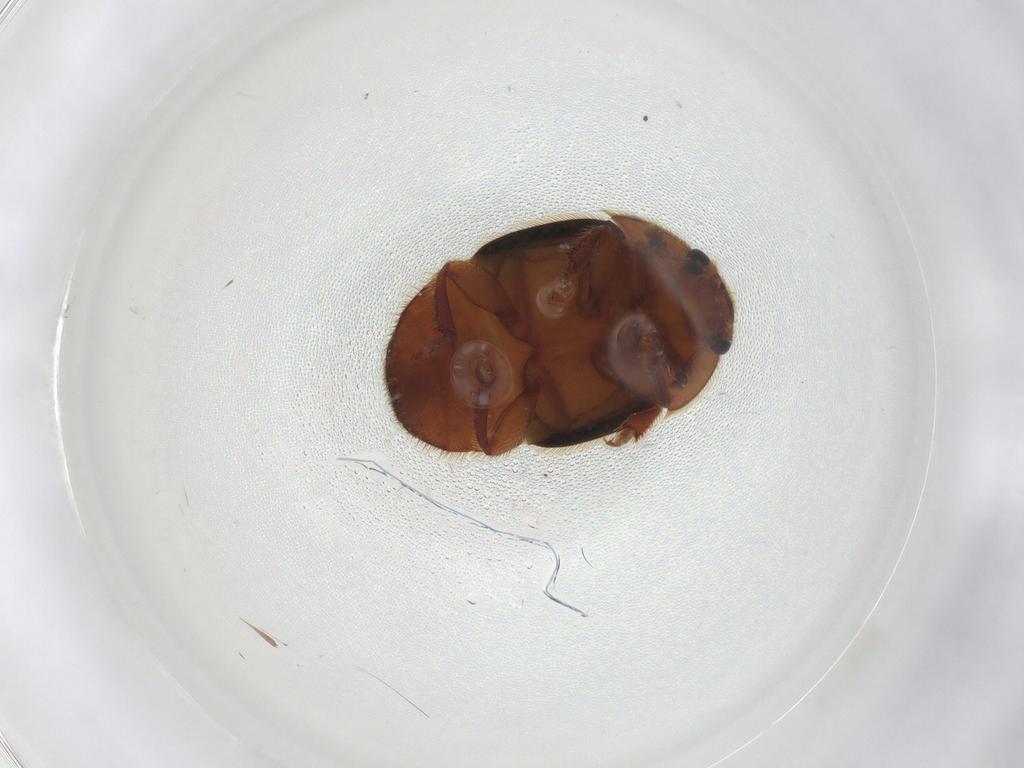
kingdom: Animalia
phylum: Arthropoda
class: Insecta
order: Coleoptera
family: Nitidulidae
